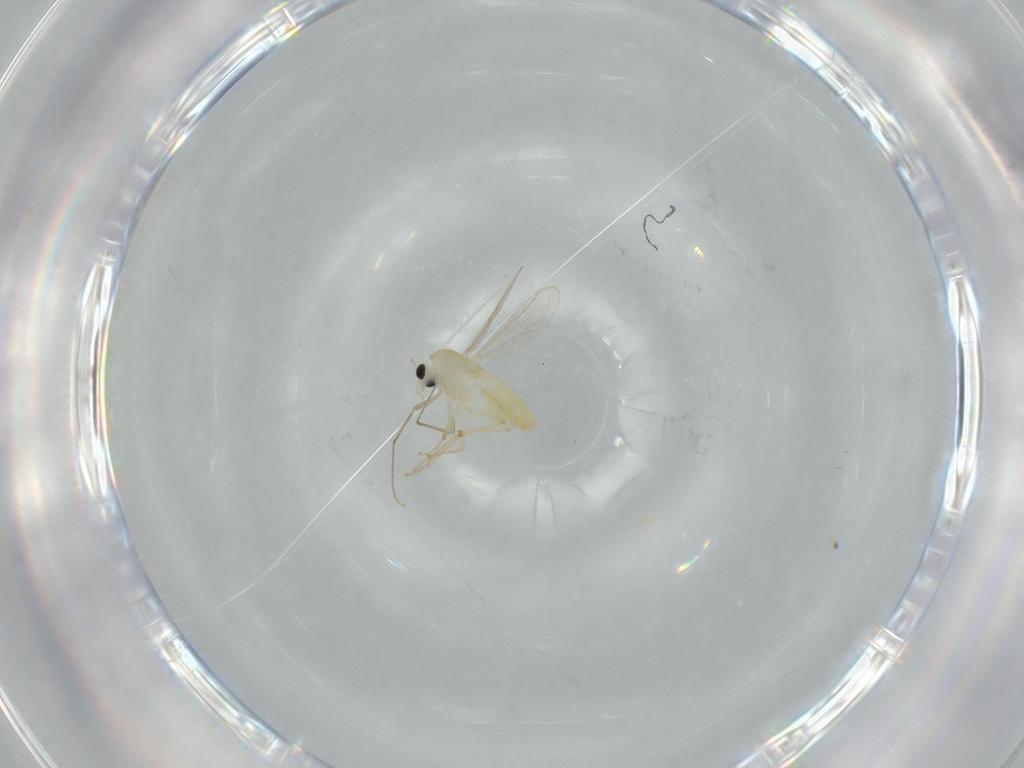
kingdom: Animalia
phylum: Arthropoda
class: Insecta
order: Diptera
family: Chironomidae
